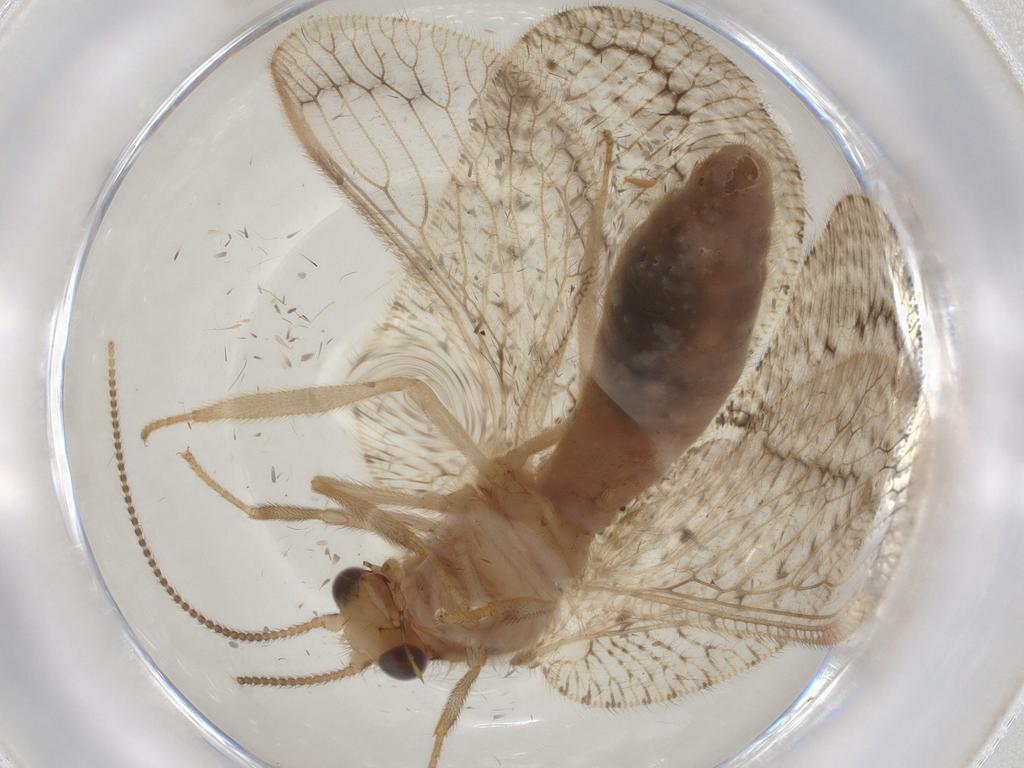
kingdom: Animalia
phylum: Arthropoda
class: Insecta
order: Neuroptera
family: Hemerobiidae
